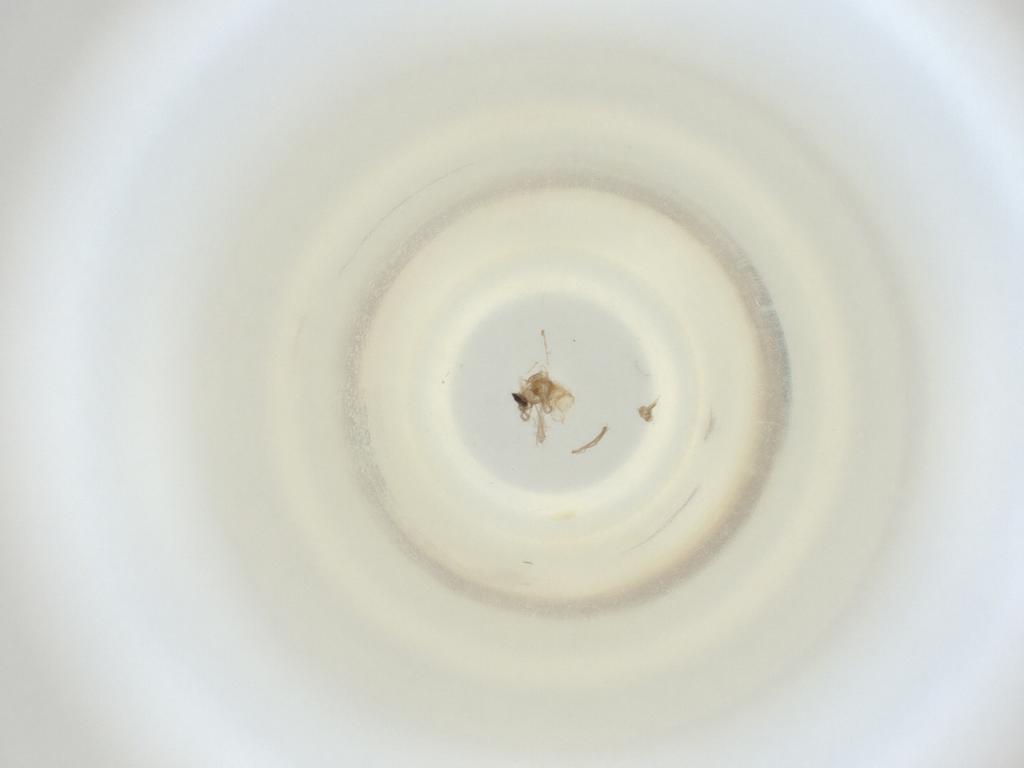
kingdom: Animalia
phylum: Arthropoda
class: Insecta
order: Diptera
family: Cecidomyiidae
